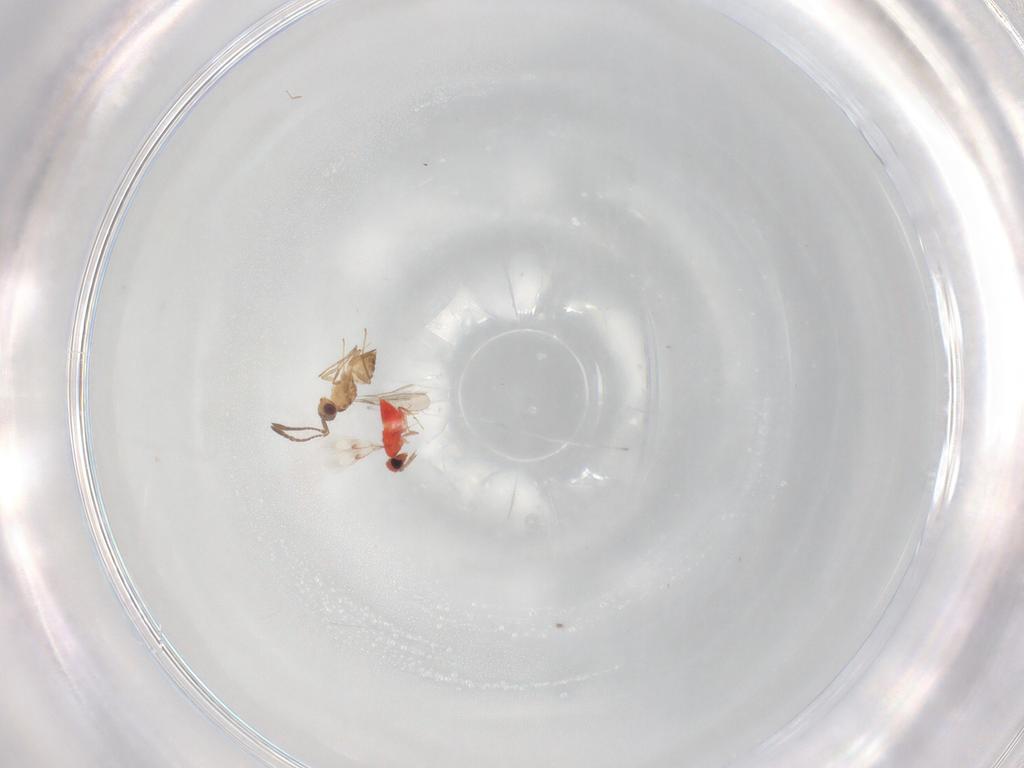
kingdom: Animalia
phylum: Arthropoda
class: Insecta
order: Hymenoptera
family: Trichogrammatidae
